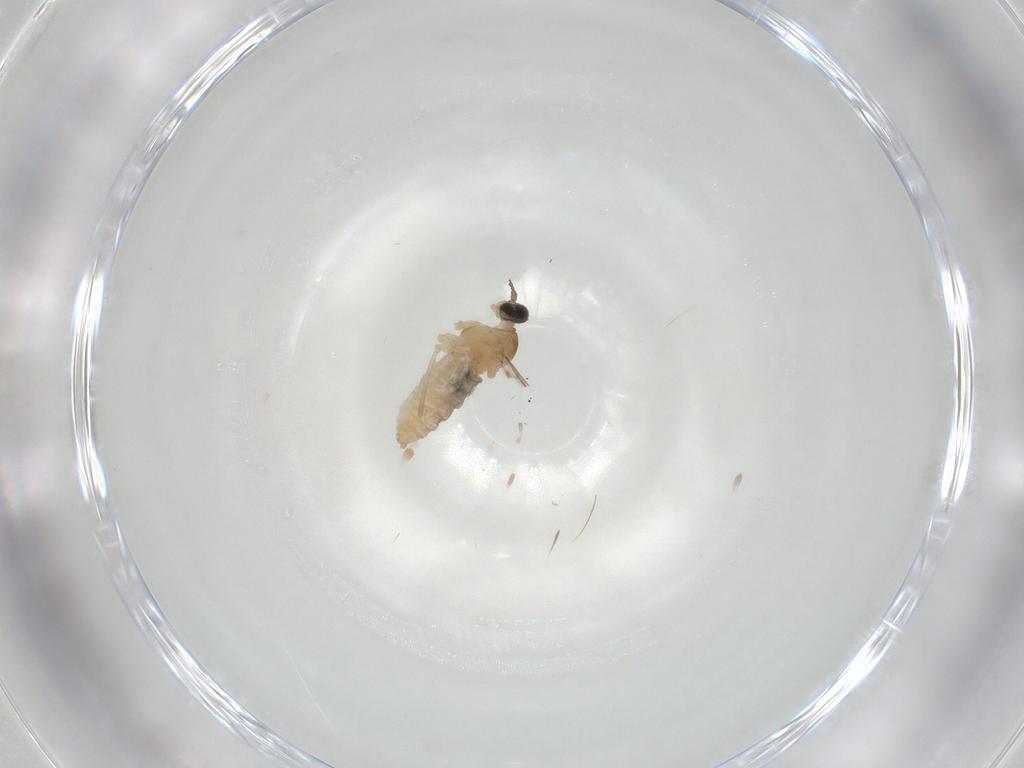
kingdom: Animalia
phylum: Arthropoda
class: Insecta
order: Diptera
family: Cecidomyiidae
